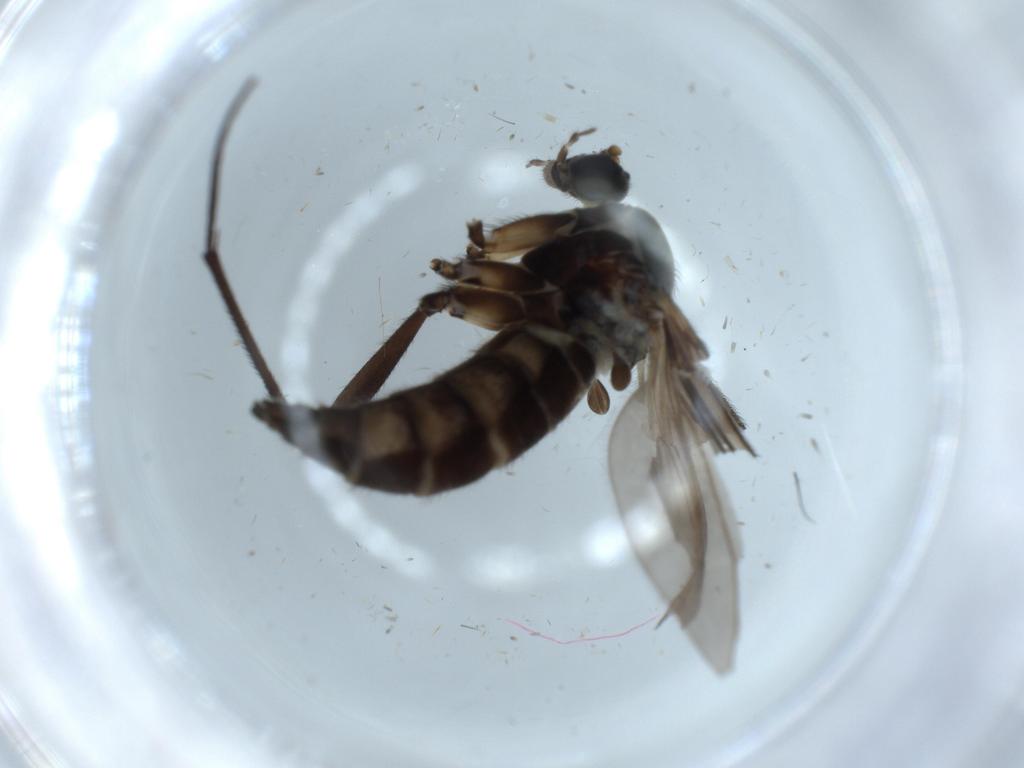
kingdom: Animalia
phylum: Arthropoda
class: Insecta
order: Diptera
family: Sciaridae
